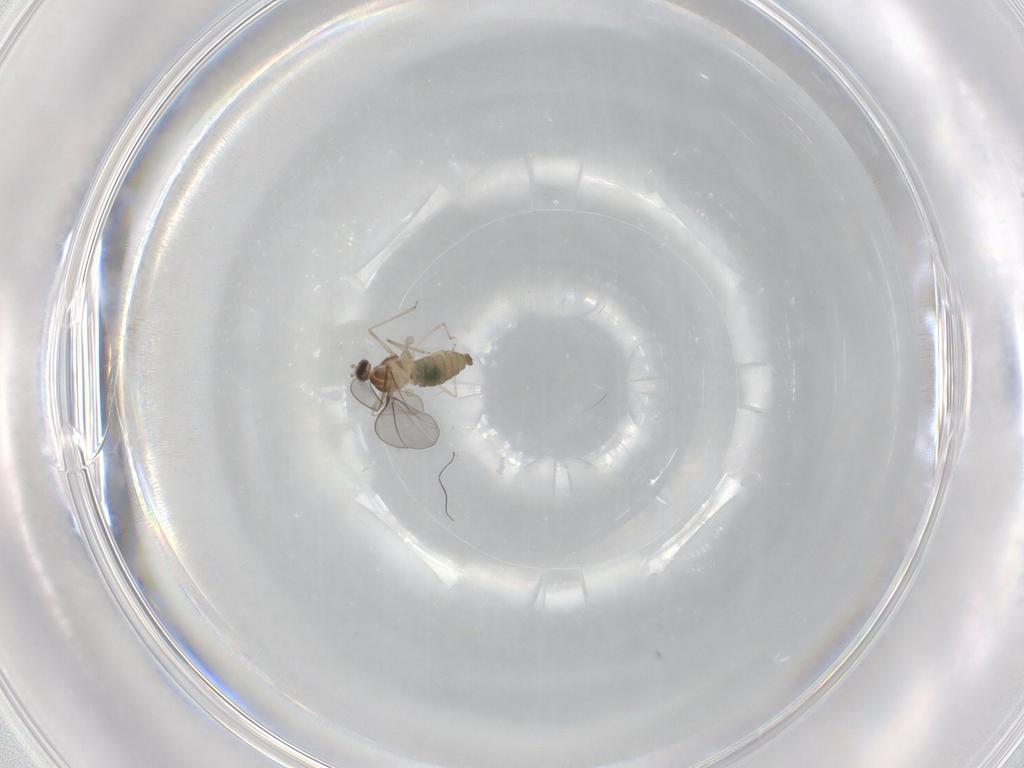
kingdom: Animalia
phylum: Arthropoda
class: Insecta
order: Diptera
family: Cecidomyiidae
